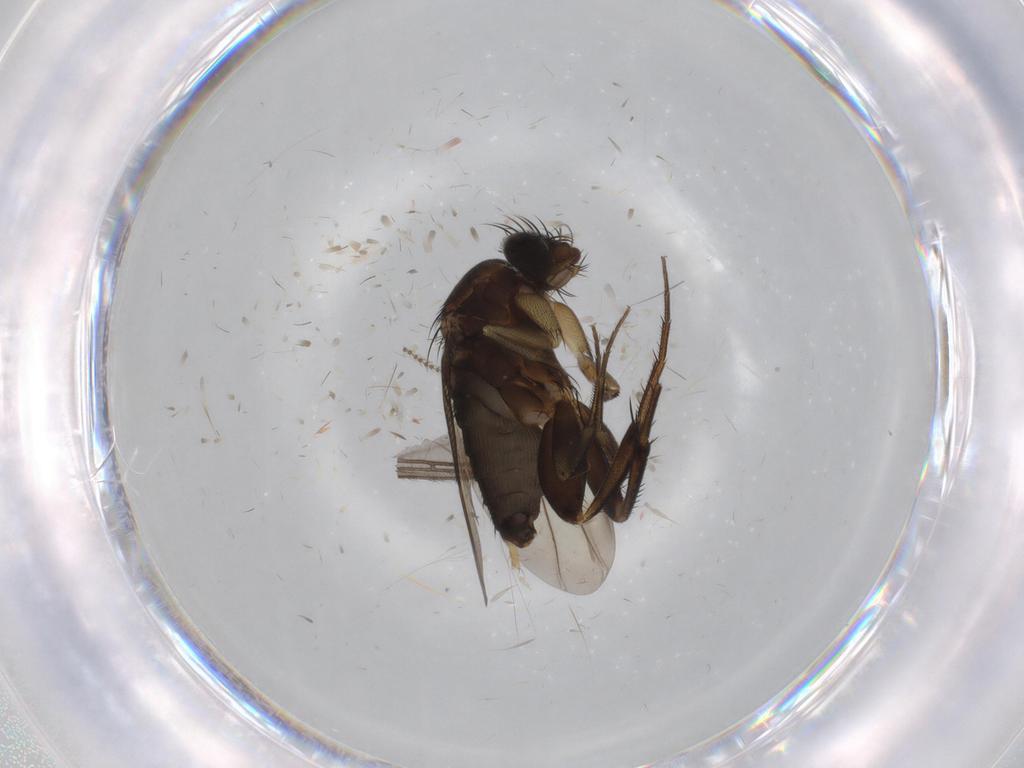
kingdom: Animalia
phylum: Arthropoda
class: Insecta
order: Diptera
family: Phoridae
